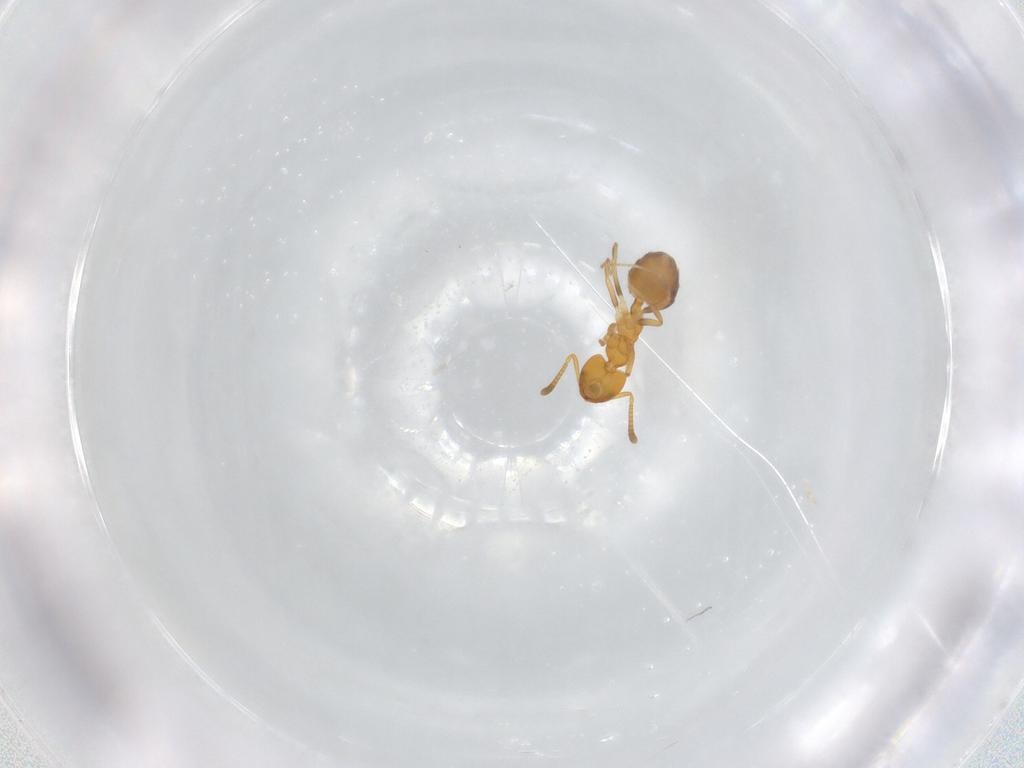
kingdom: Animalia
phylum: Arthropoda
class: Insecta
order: Hymenoptera
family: Formicidae
